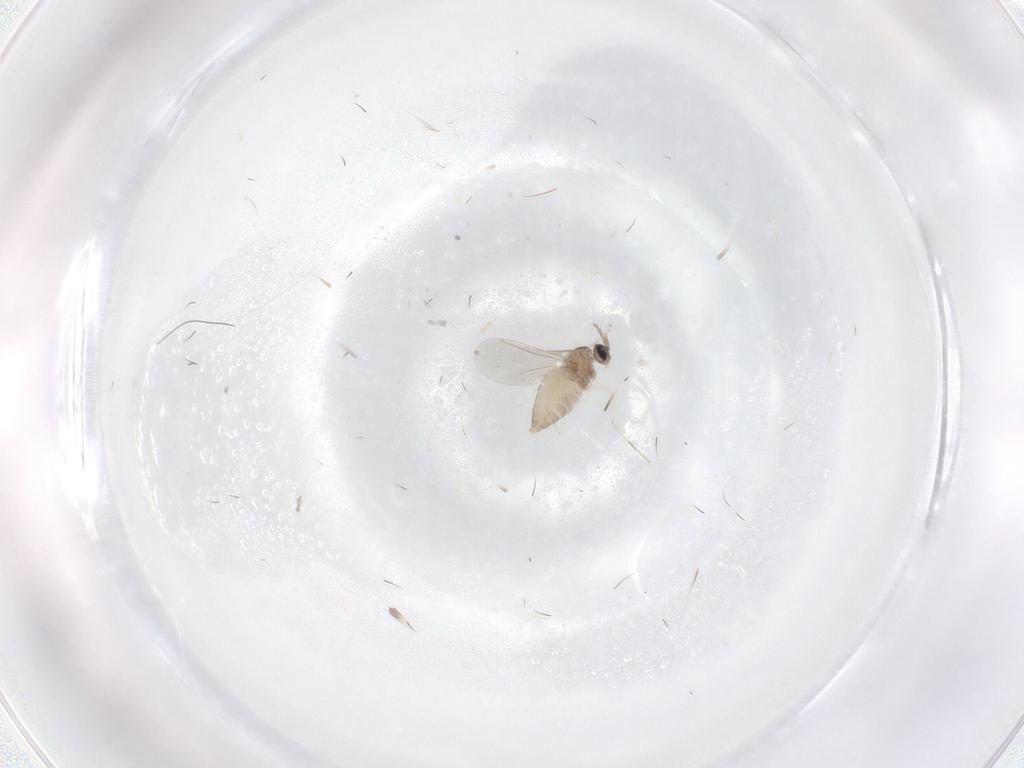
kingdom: Animalia
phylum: Arthropoda
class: Insecta
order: Diptera
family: Cecidomyiidae
